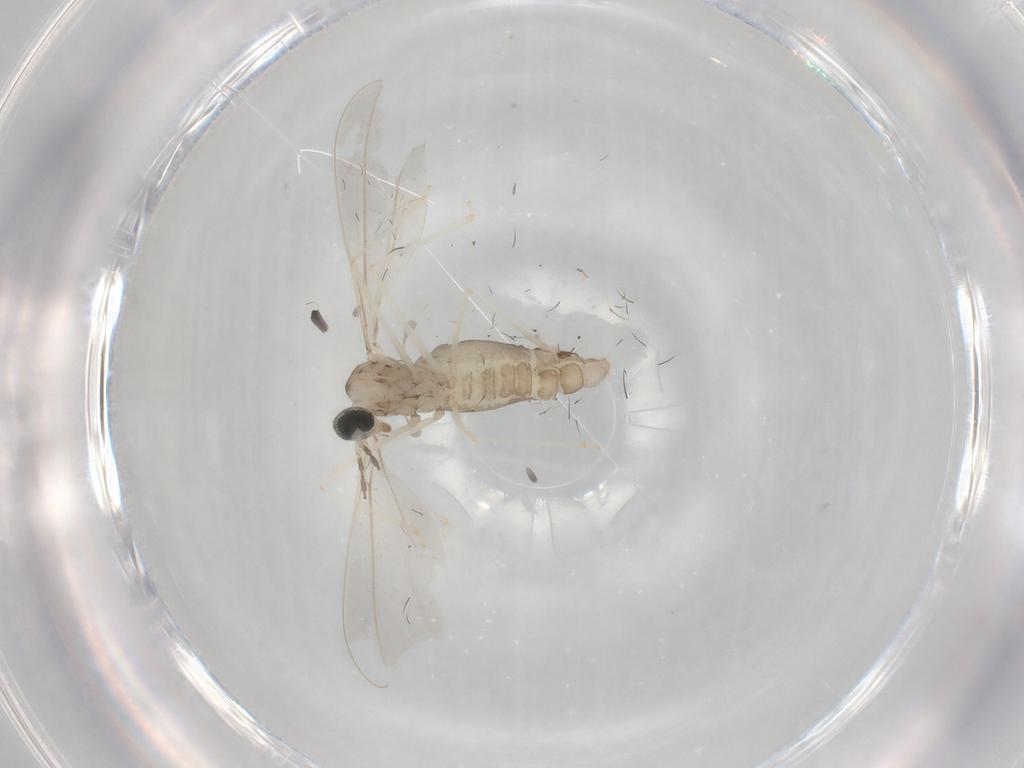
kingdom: Animalia
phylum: Arthropoda
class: Insecta
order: Diptera
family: Cecidomyiidae
